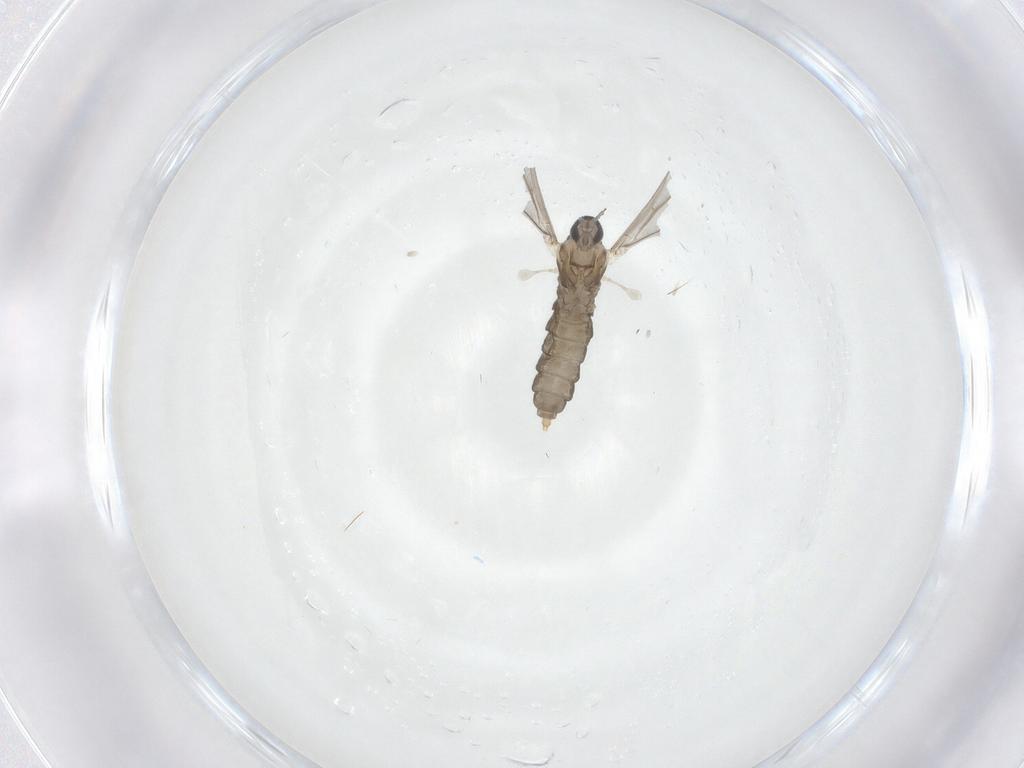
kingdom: Animalia
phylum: Arthropoda
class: Insecta
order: Diptera
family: Cecidomyiidae
